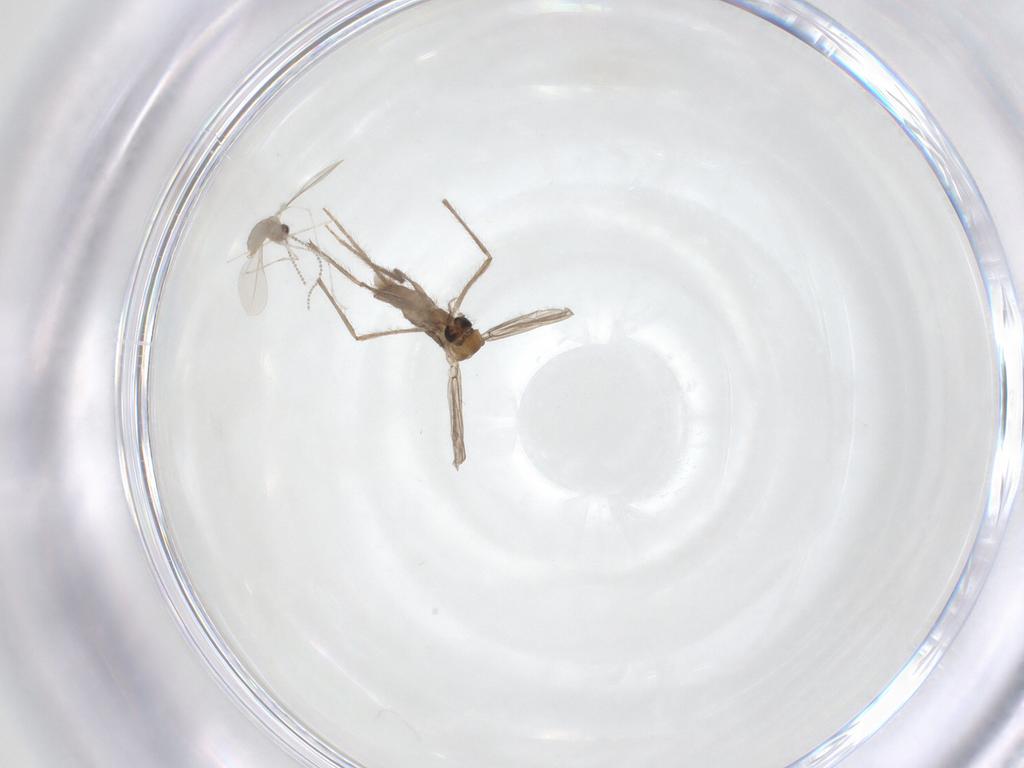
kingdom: Animalia
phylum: Arthropoda
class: Insecta
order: Diptera
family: Chironomidae
